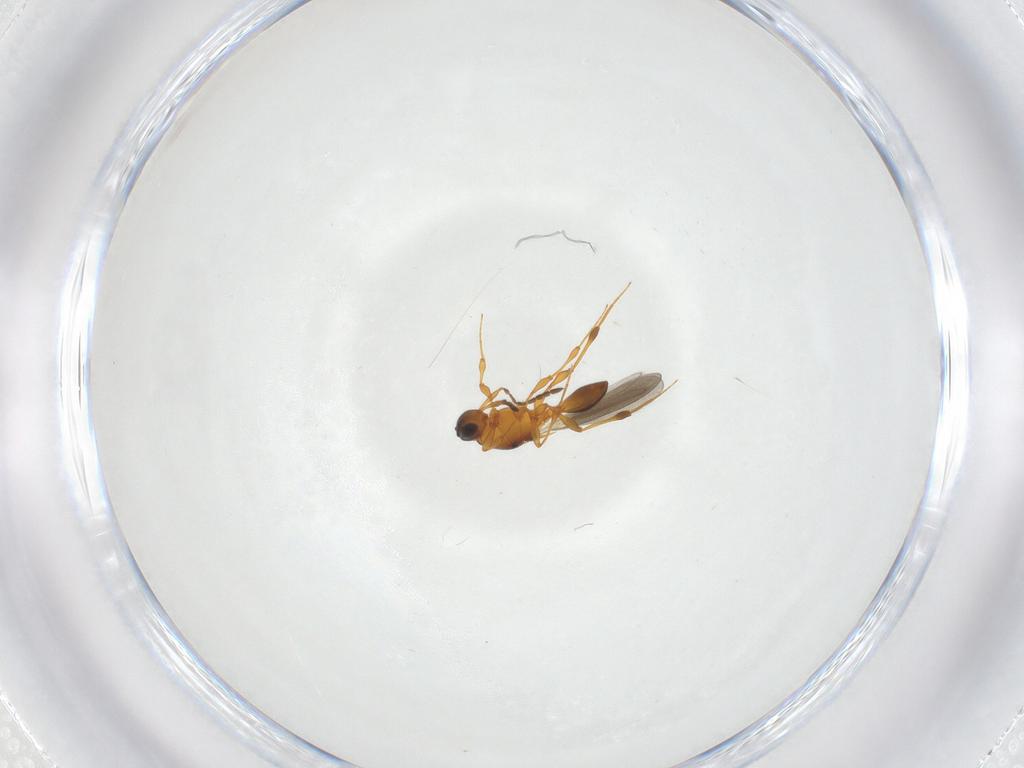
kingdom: Animalia
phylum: Arthropoda
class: Insecta
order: Hymenoptera
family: Platygastridae
